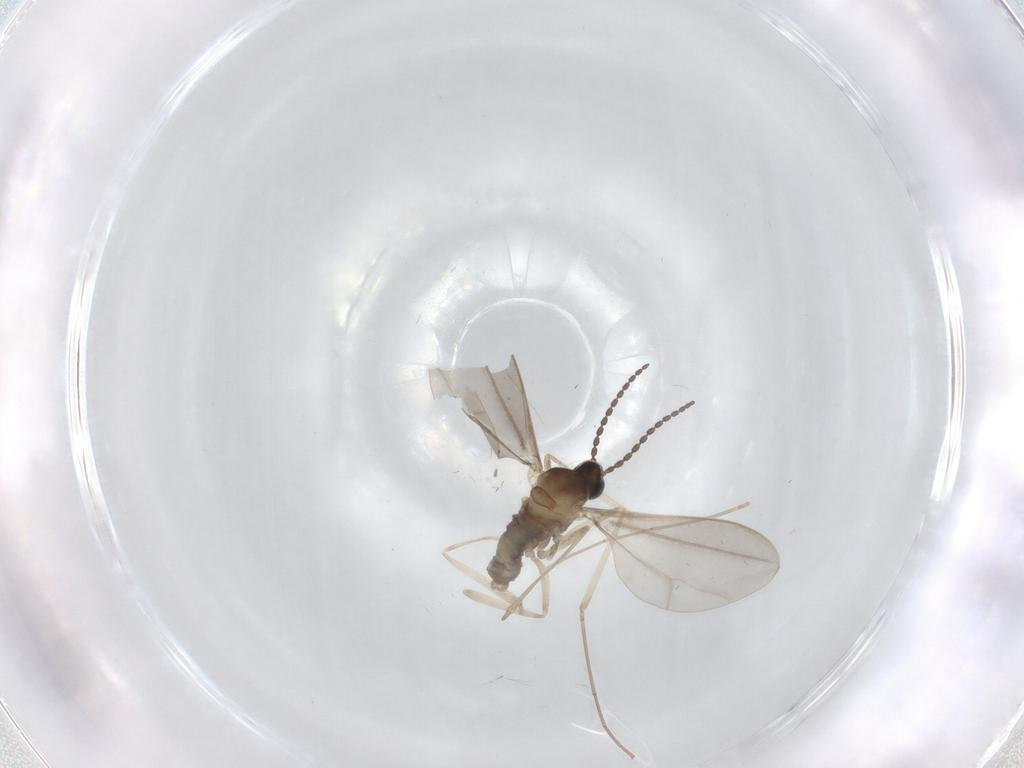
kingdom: Animalia
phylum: Arthropoda
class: Insecta
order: Diptera
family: Cecidomyiidae
